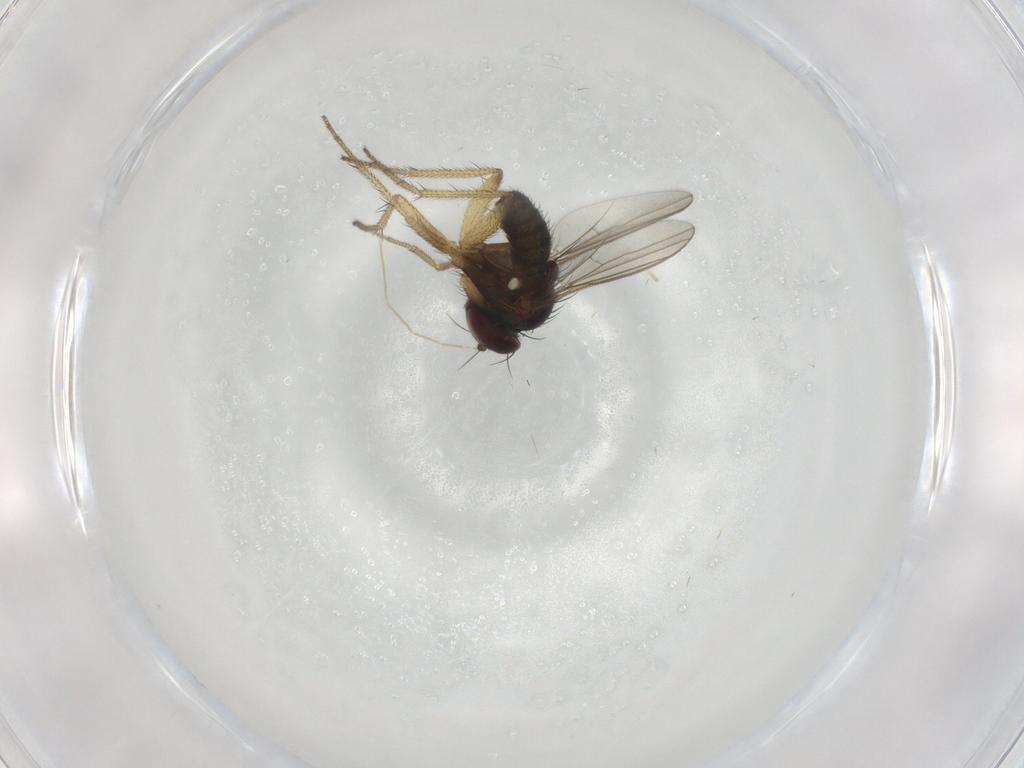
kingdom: Animalia
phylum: Arthropoda
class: Insecta
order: Diptera
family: Dolichopodidae
